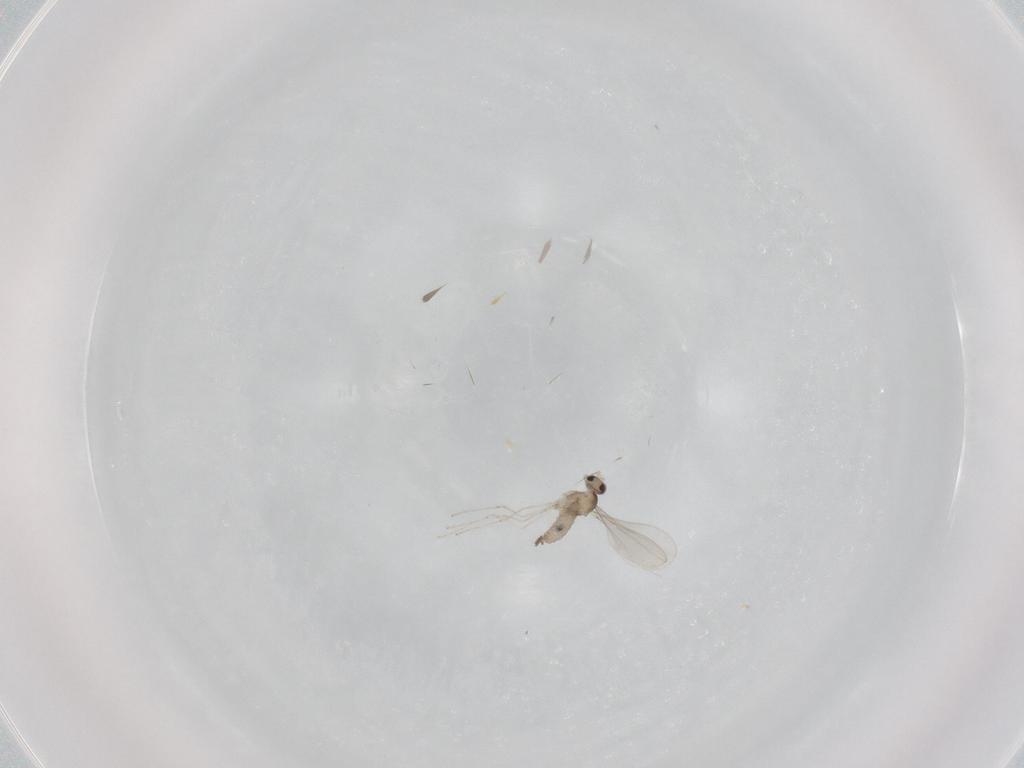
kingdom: Animalia
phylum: Arthropoda
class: Insecta
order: Diptera
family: Cecidomyiidae
